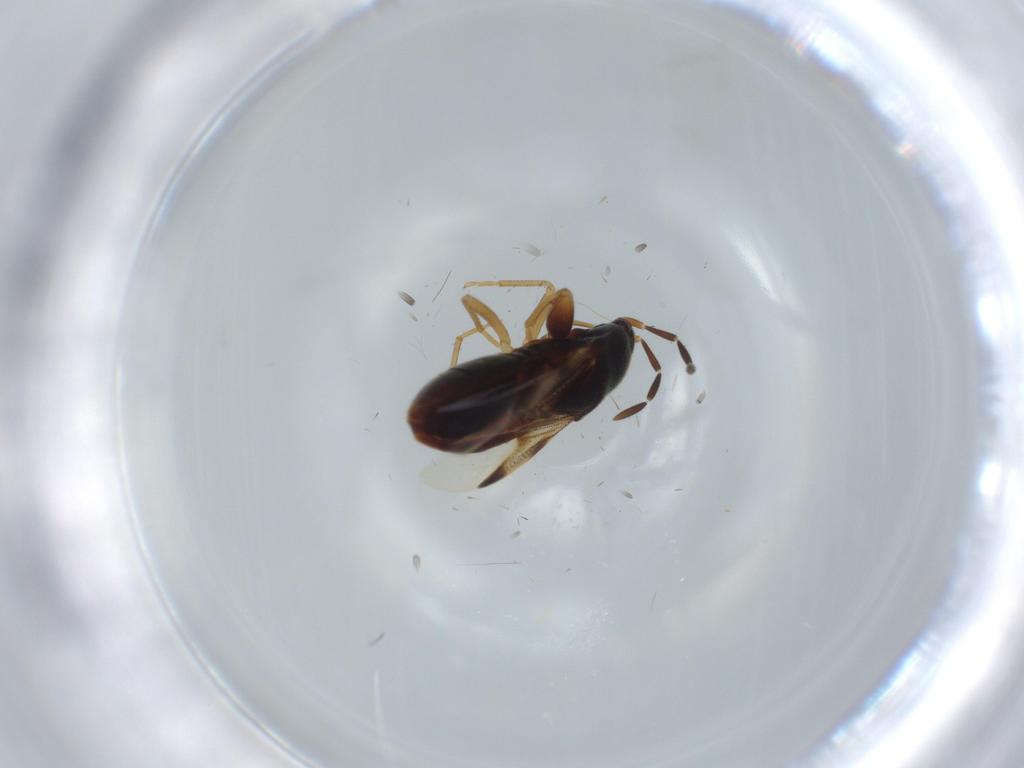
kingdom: Animalia
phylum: Arthropoda
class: Insecta
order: Hemiptera
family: Rhyparochromidae
